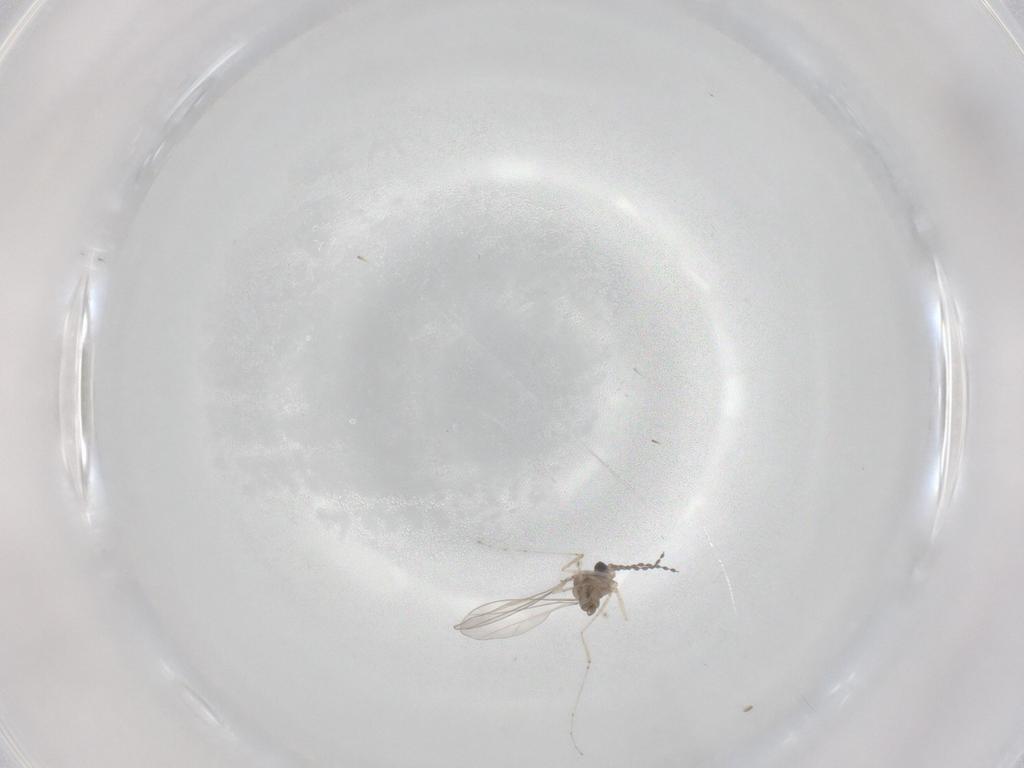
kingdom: Animalia
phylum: Arthropoda
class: Insecta
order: Diptera
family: Cecidomyiidae
